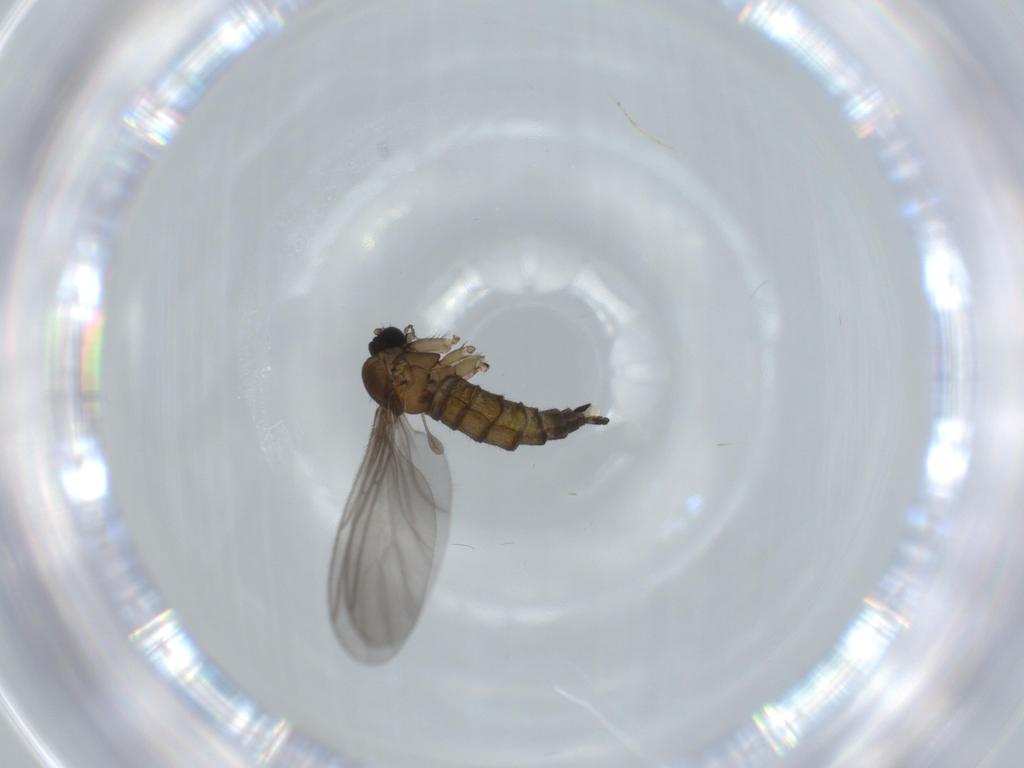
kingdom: Animalia
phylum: Arthropoda
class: Insecta
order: Diptera
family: Sciaridae
